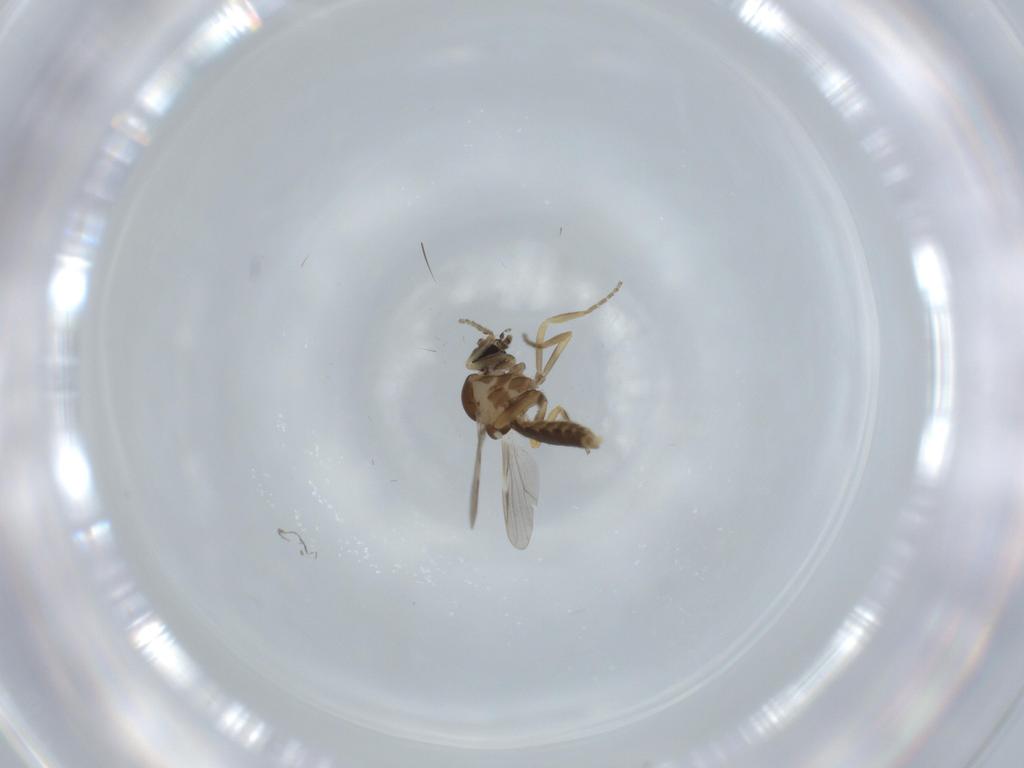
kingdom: Animalia
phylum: Arthropoda
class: Insecta
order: Diptera
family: Ceratopogonidae
